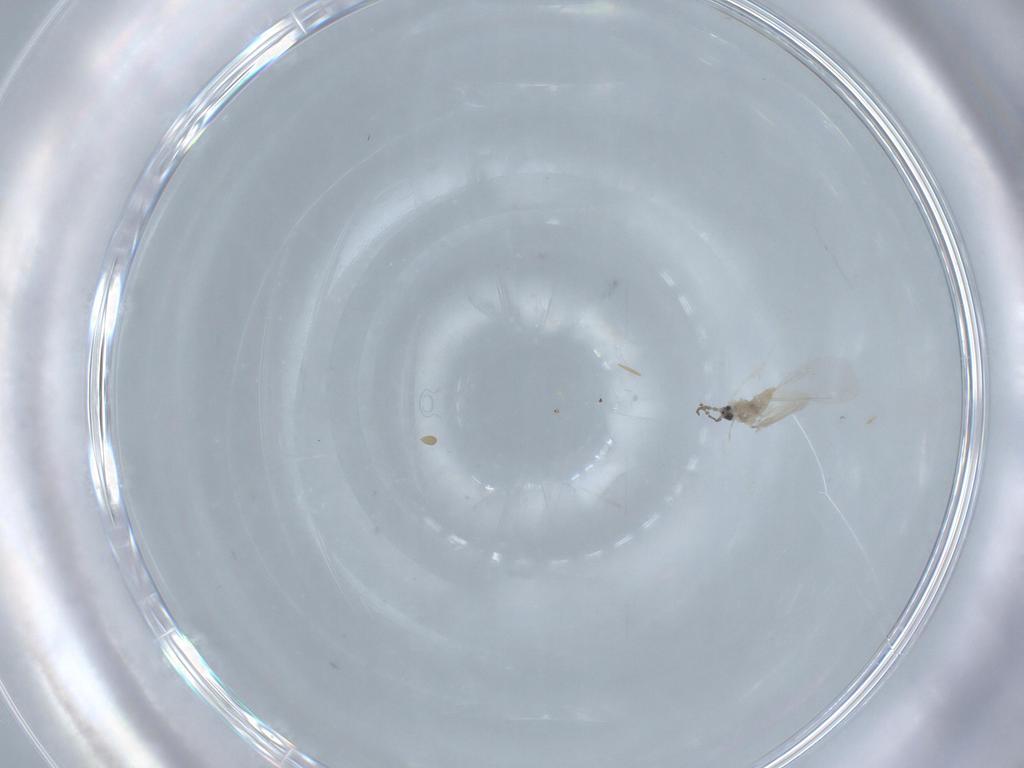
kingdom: Animalia
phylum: Arthropoda
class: Insecta
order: Diptera
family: Cecidomyiidae
